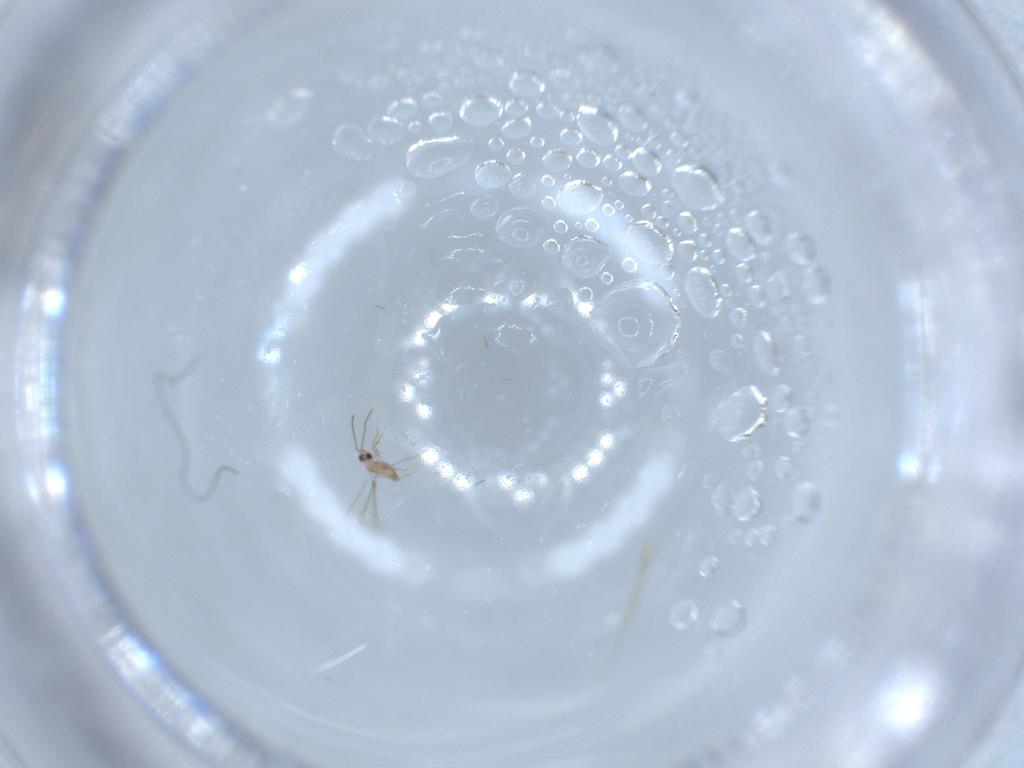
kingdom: Animalia
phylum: Arthropoda
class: Insecta
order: Hymenoptera
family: Mymaridae
